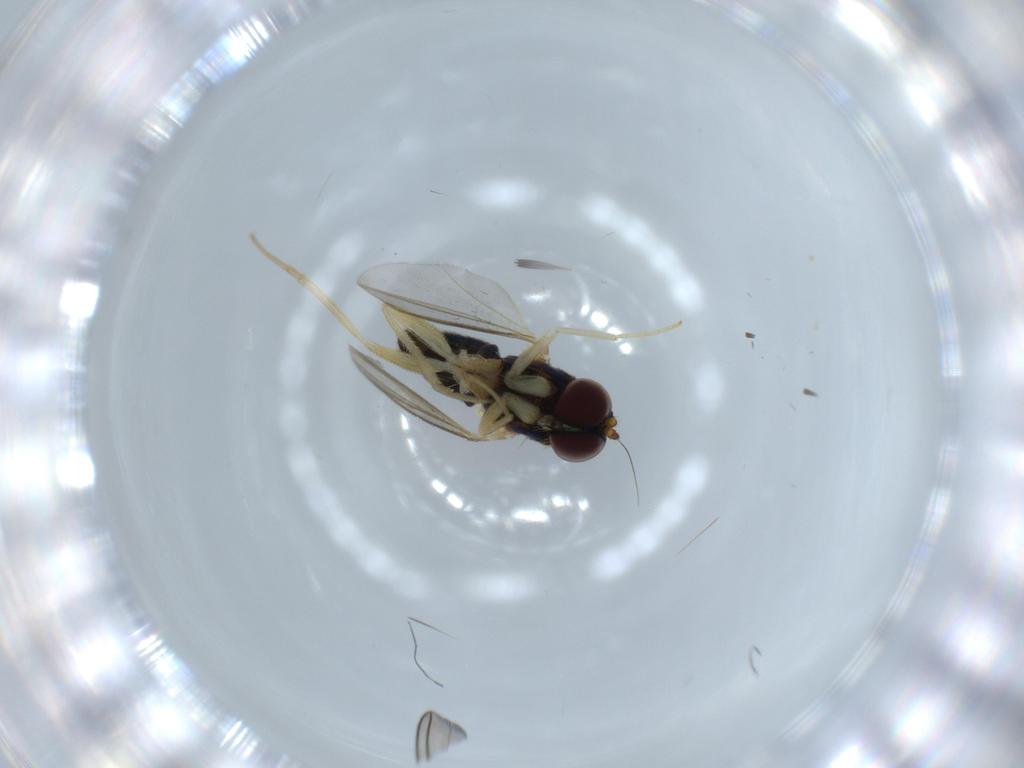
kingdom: Animalia
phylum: Arthropoda
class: Insecta
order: Diptera
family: Dolichopodidae
